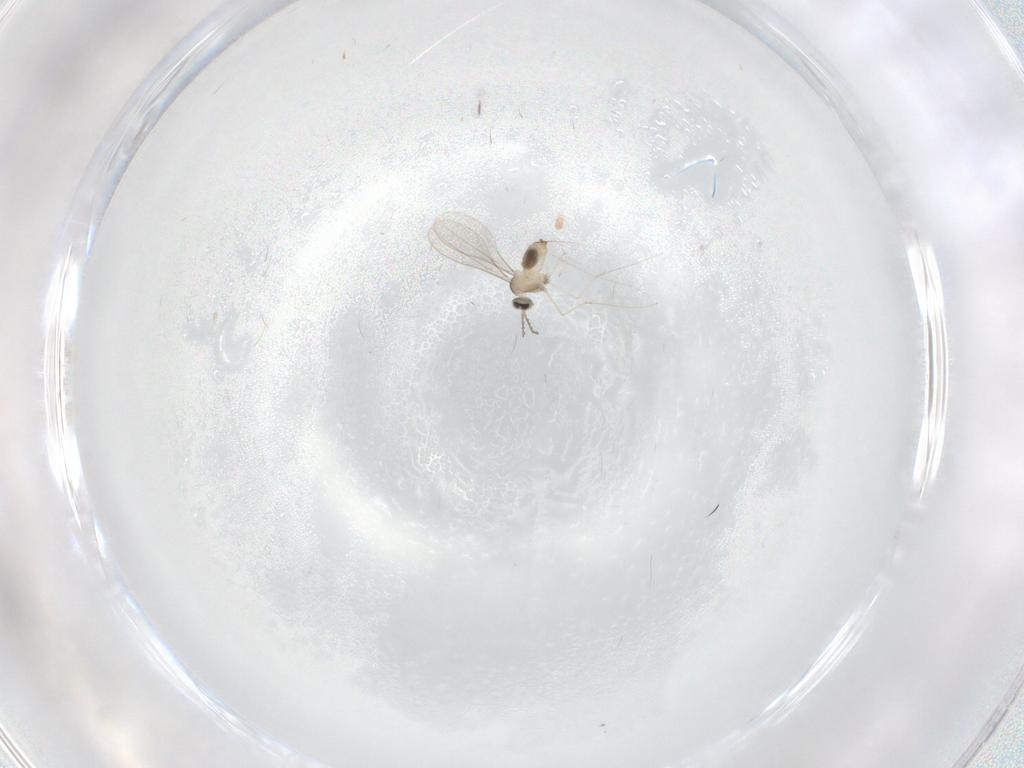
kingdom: Animalia
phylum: Arthropoda
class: Insecta
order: Diptera
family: Cecidomyiidae
